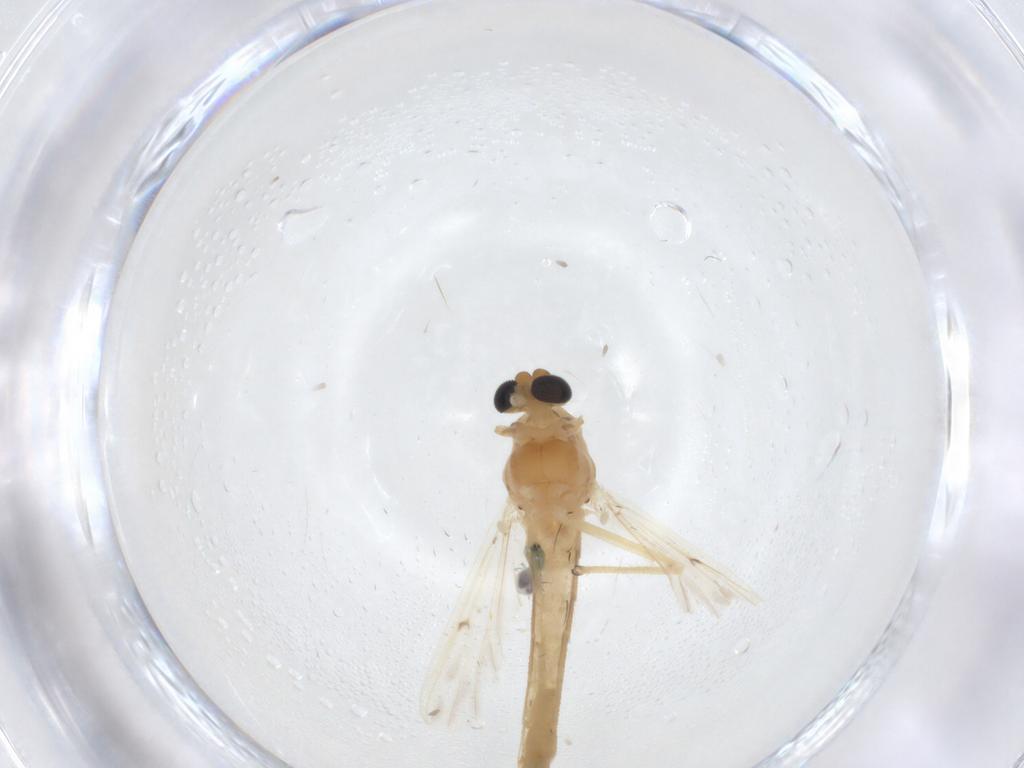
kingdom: Animalia
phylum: Arthropoda
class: Insecta
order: Diptera
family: Chironomidae
